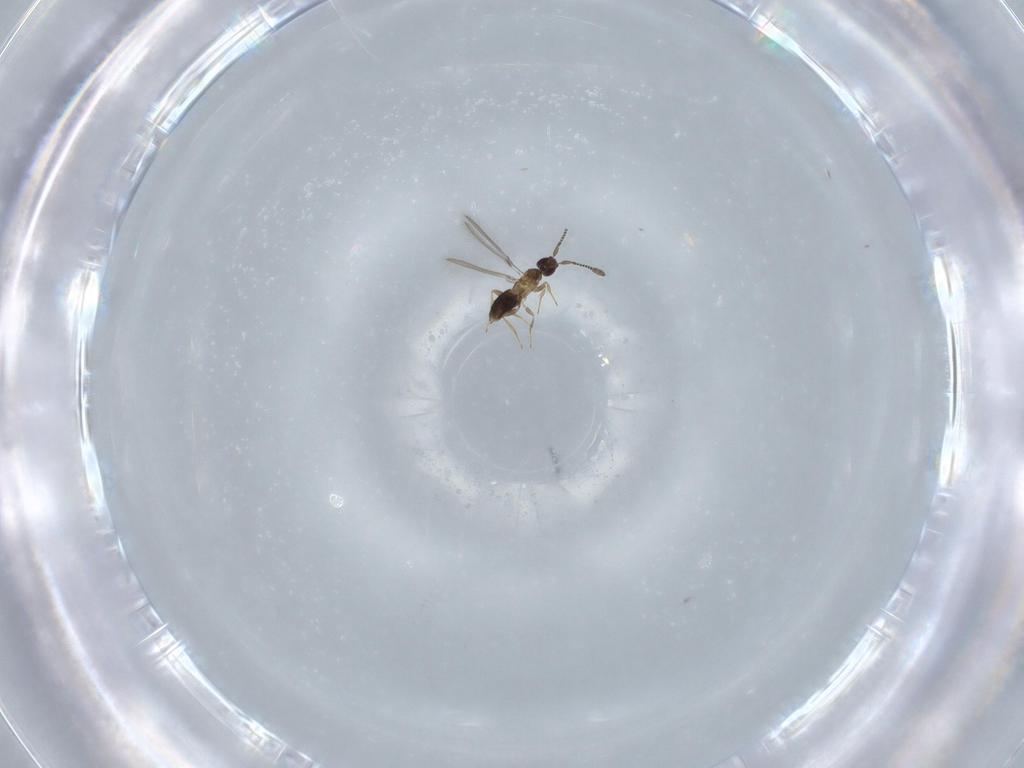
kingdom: Animalia
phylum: Arthropoda
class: Insecta
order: Hymenoptera
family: Mymaridae
